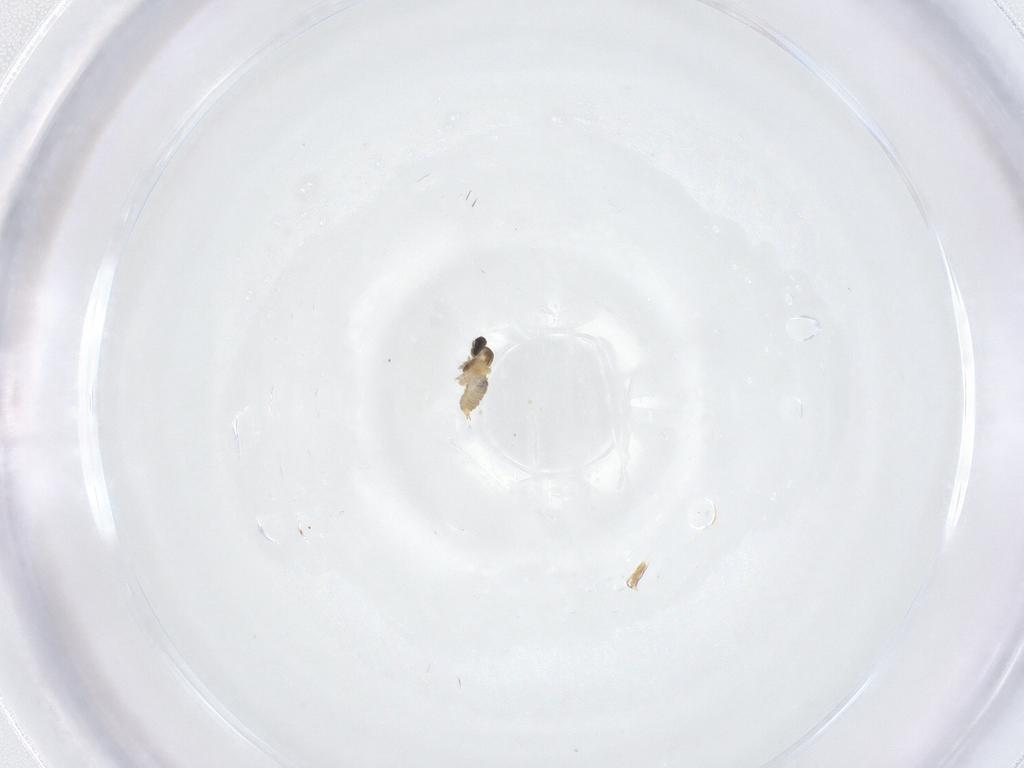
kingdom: Animalia
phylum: Arthropoda
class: Insecta
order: Diptera
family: Cecidomyiidae
